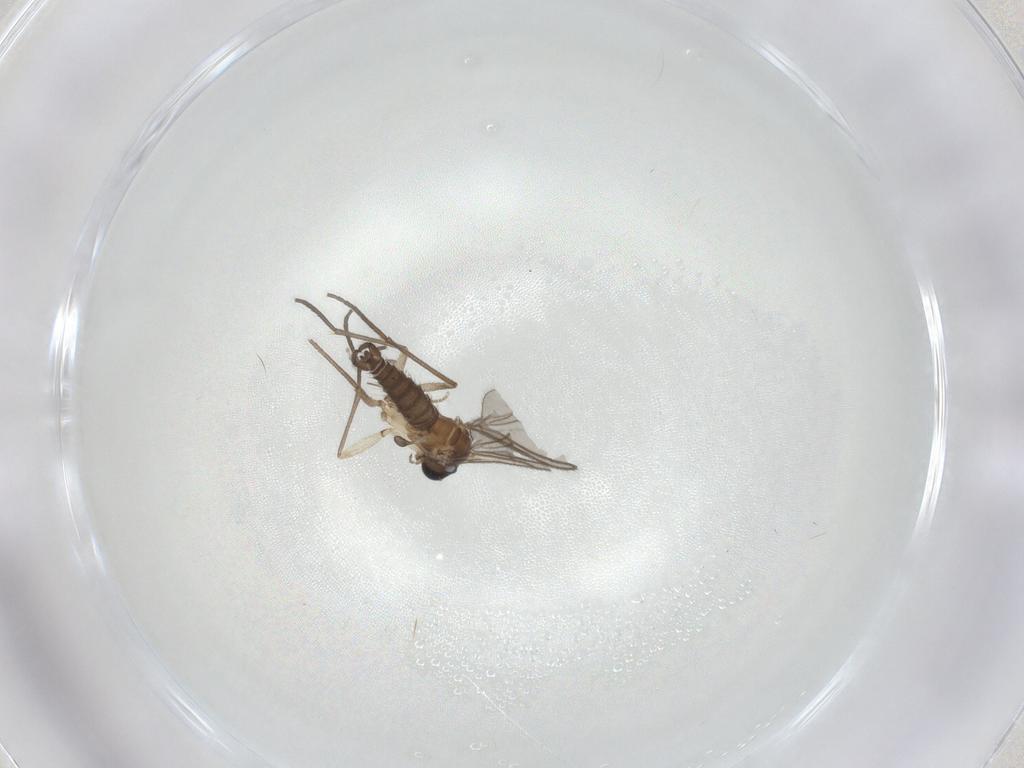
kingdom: Animalia
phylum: Arthropoda
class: Insecta
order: Diptera
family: Sciaridae
